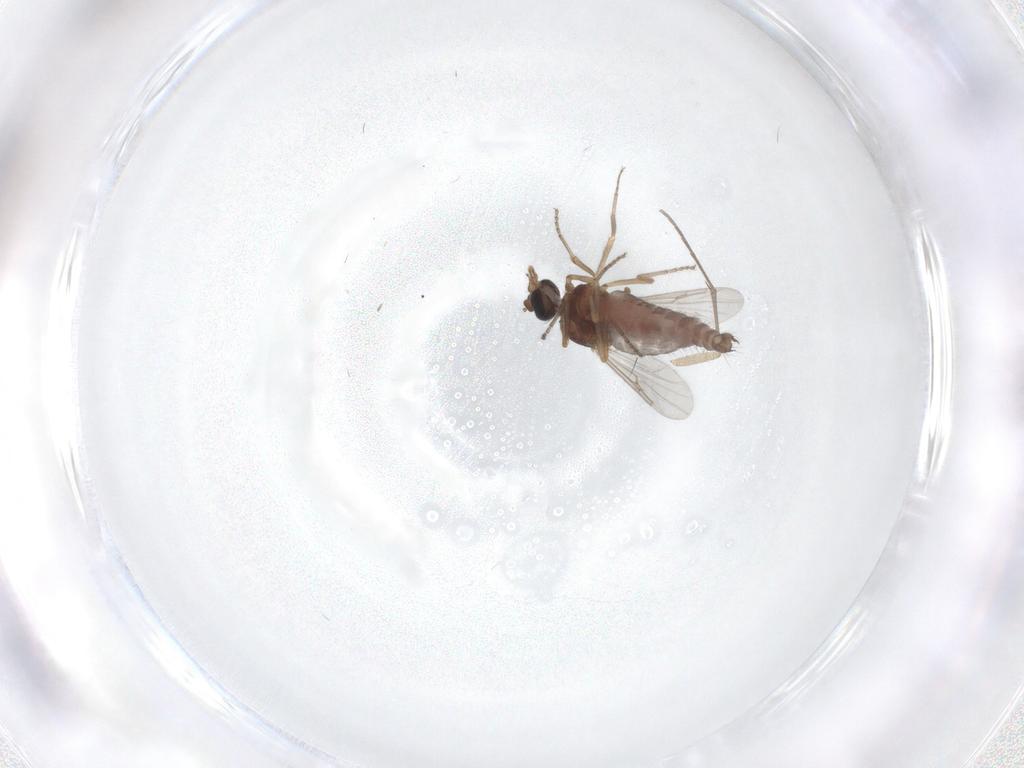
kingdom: Animalia
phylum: Arthropoda
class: Insecta
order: Diptera
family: Ceratopogonidae
